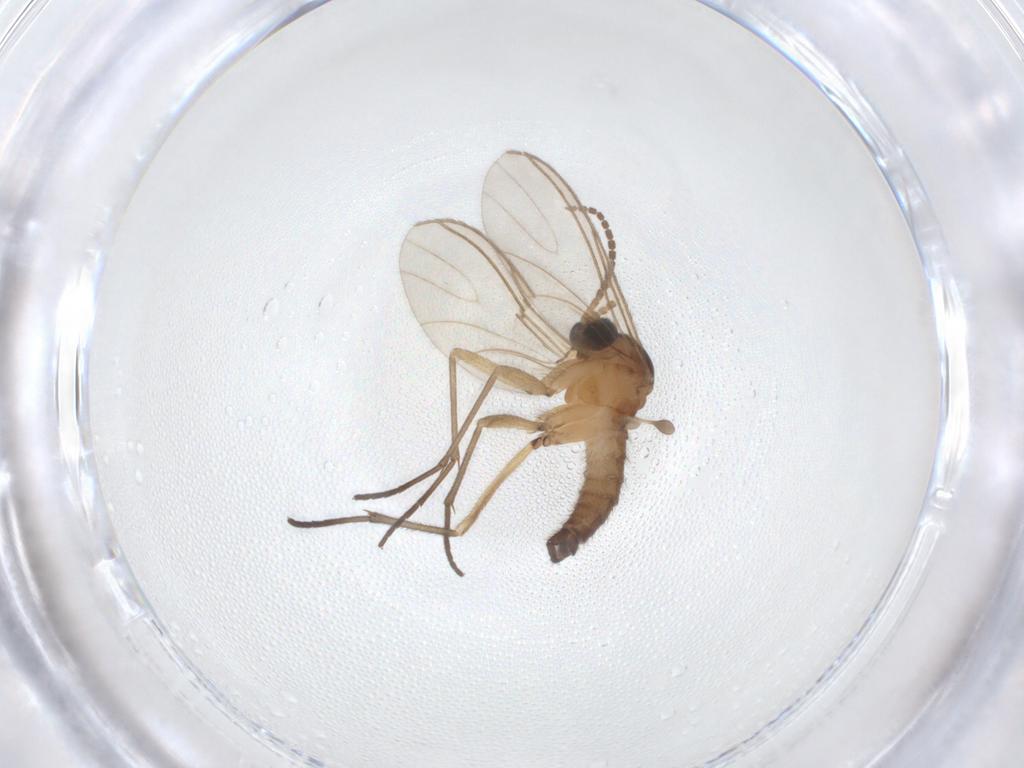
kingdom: Animalia
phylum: Arthropoda
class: Insecta
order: Diptera
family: Sciaridae
